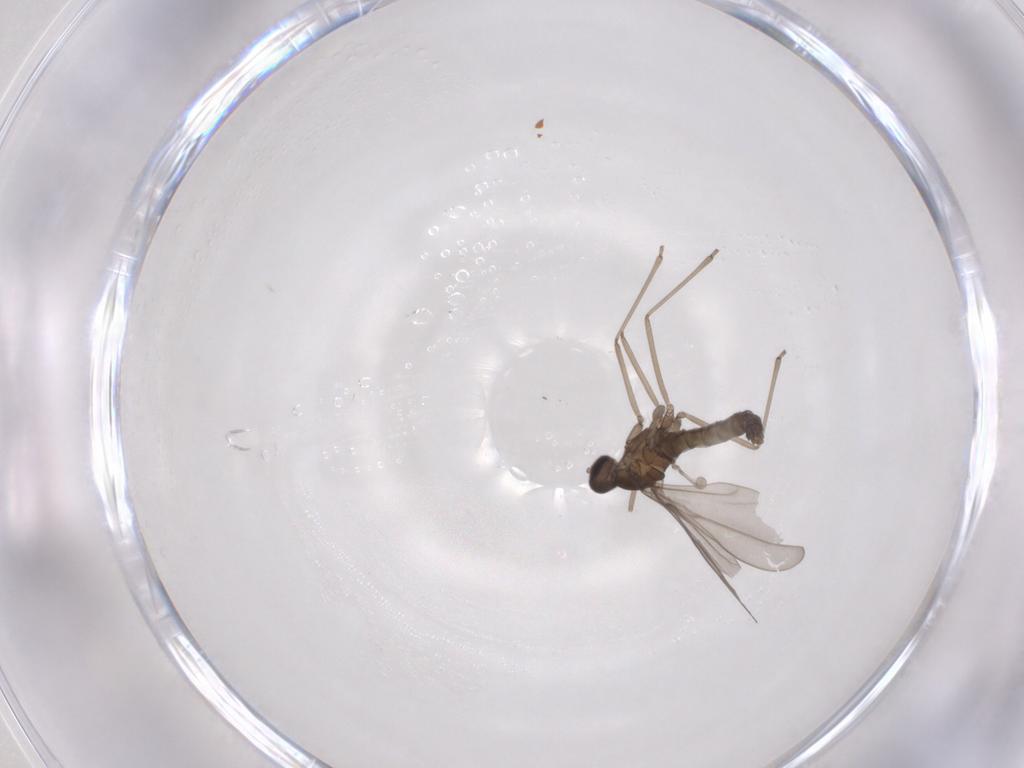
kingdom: Animalia
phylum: Arthropoda
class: Insecta
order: Diptera
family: Cecidomyiidae
